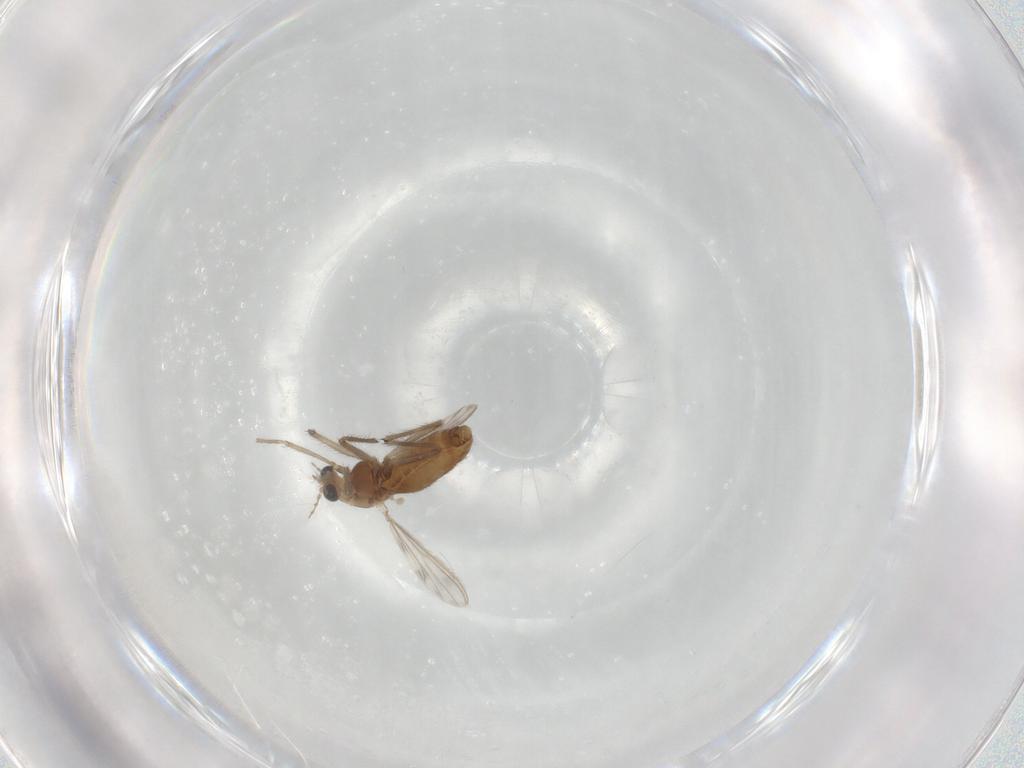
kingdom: Animalia
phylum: Arthropoda
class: Insecta
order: Diptera
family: Chironomidae
